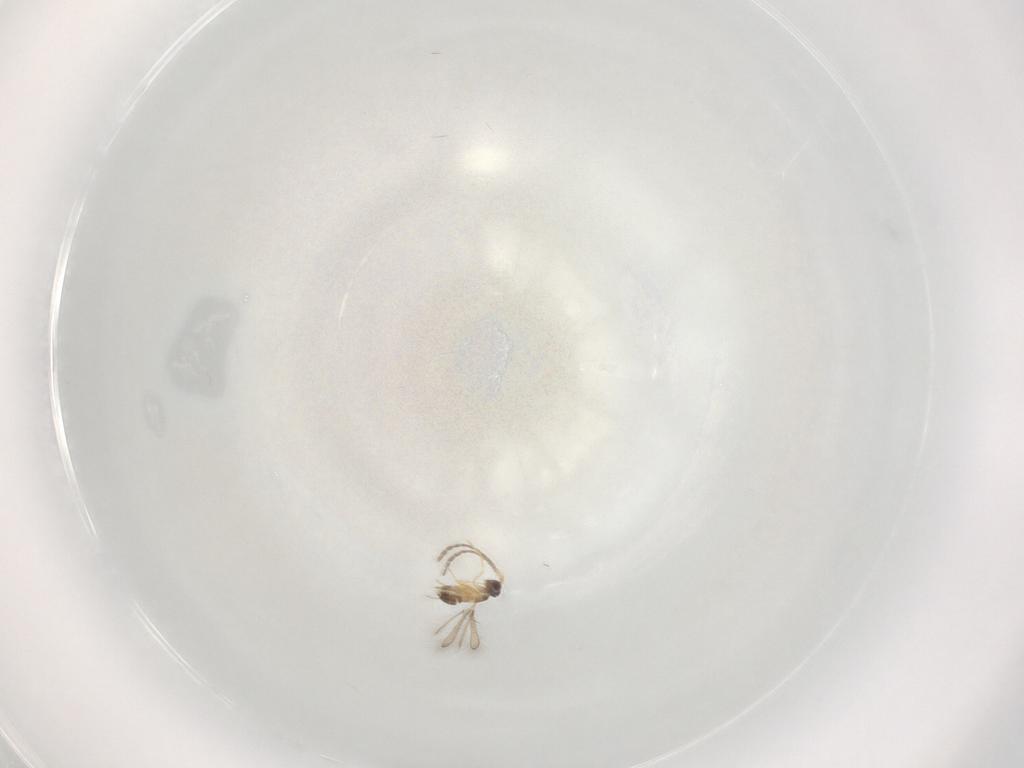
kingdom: Animalia
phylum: Arthropoda
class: Insecta
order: Hymenoptera
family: Mymaridae
